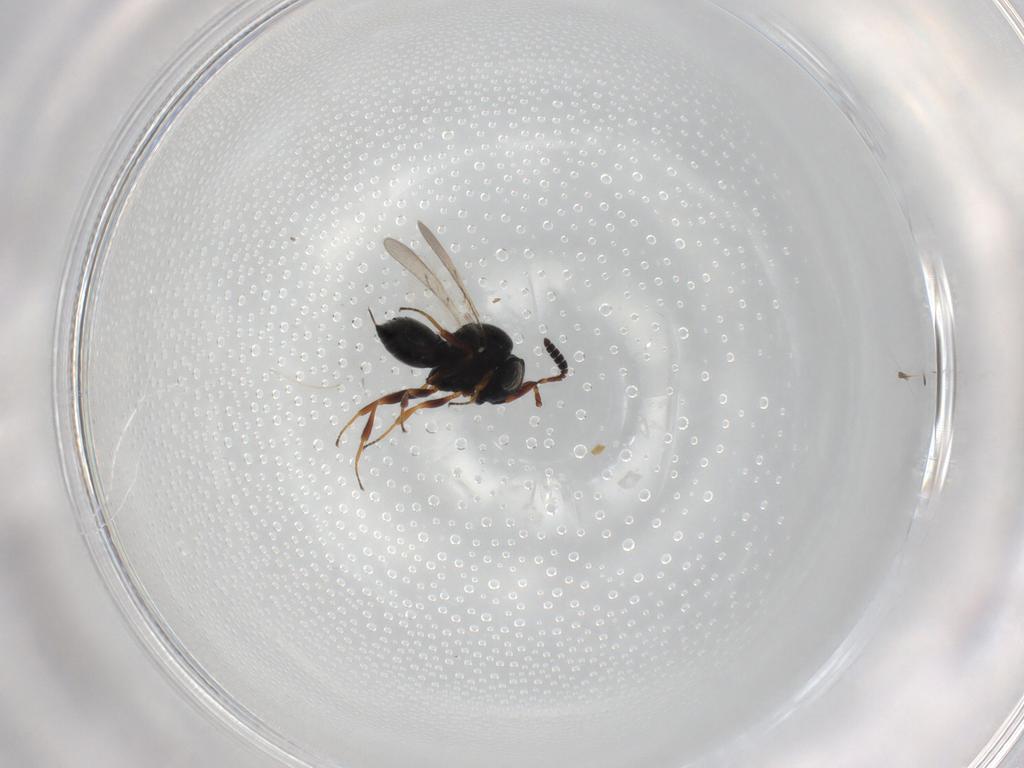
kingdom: Animalia
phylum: Arthropoda
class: Insecta
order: Hymenoptera
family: Scelionidae
